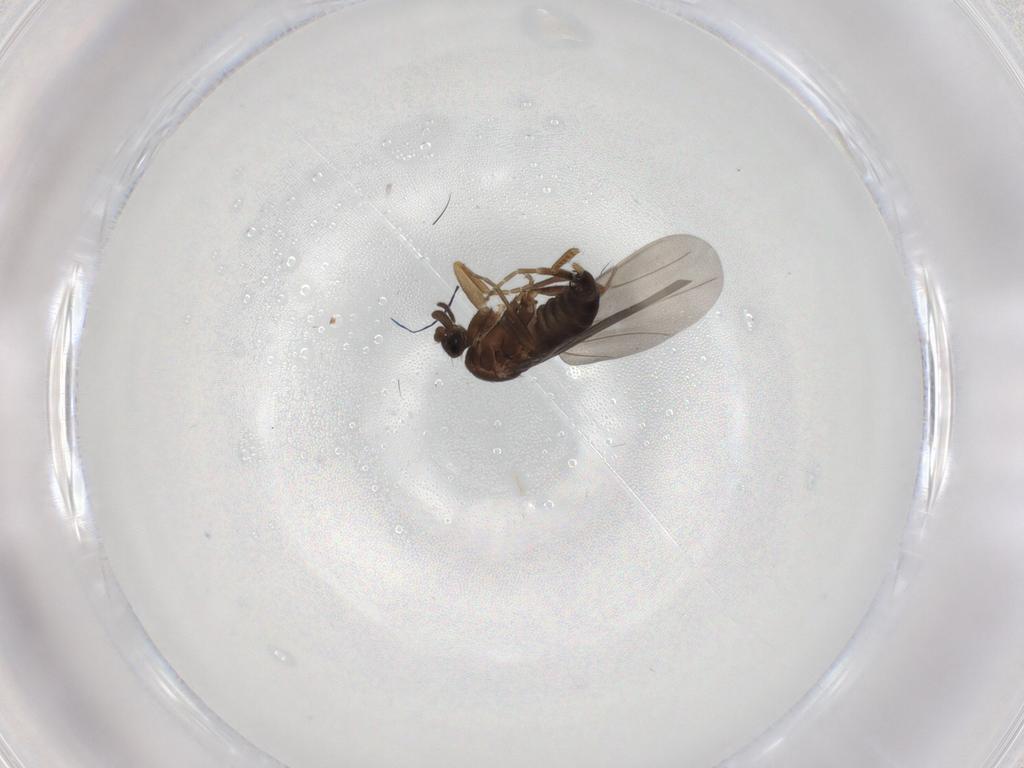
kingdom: Animalia
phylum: Arthropoda
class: Insecta
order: Diptera
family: Phoridae
